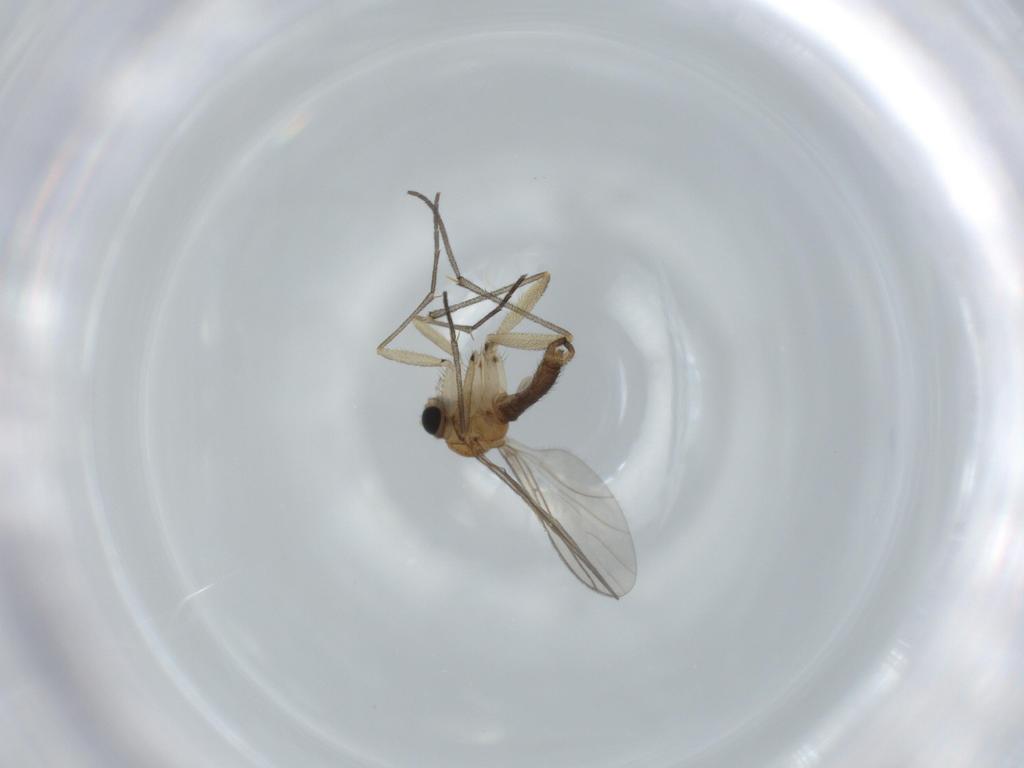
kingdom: Animalia
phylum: Arthropoda
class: Insecta
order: Diptera
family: Sciaridae
